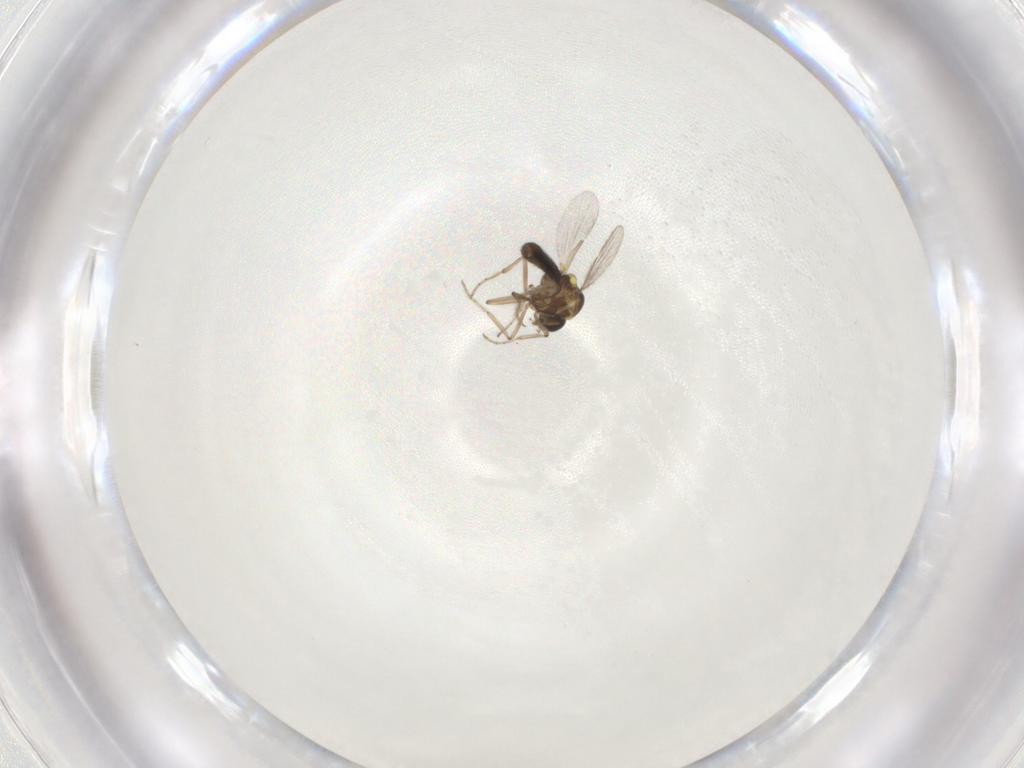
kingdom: Animalia
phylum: Arthropoda
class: Insecta
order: Diptera
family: Ceratopogonidae
